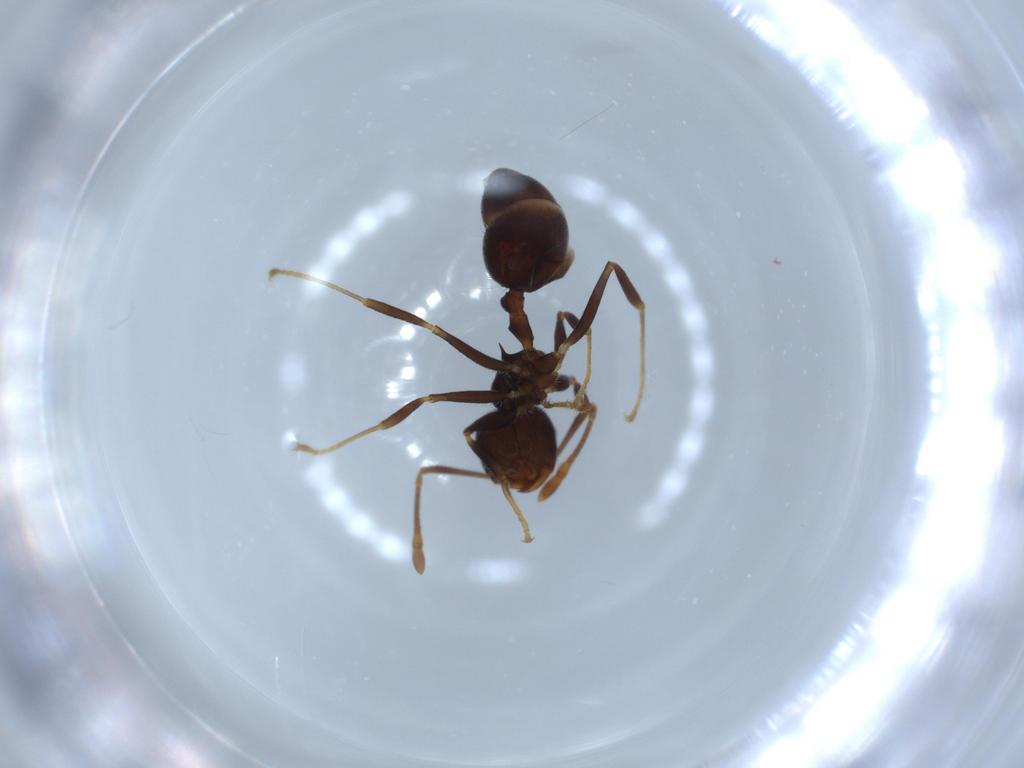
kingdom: Animalia
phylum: Arthropoda
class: Insecta
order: Hymenoptera
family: Formicidae
